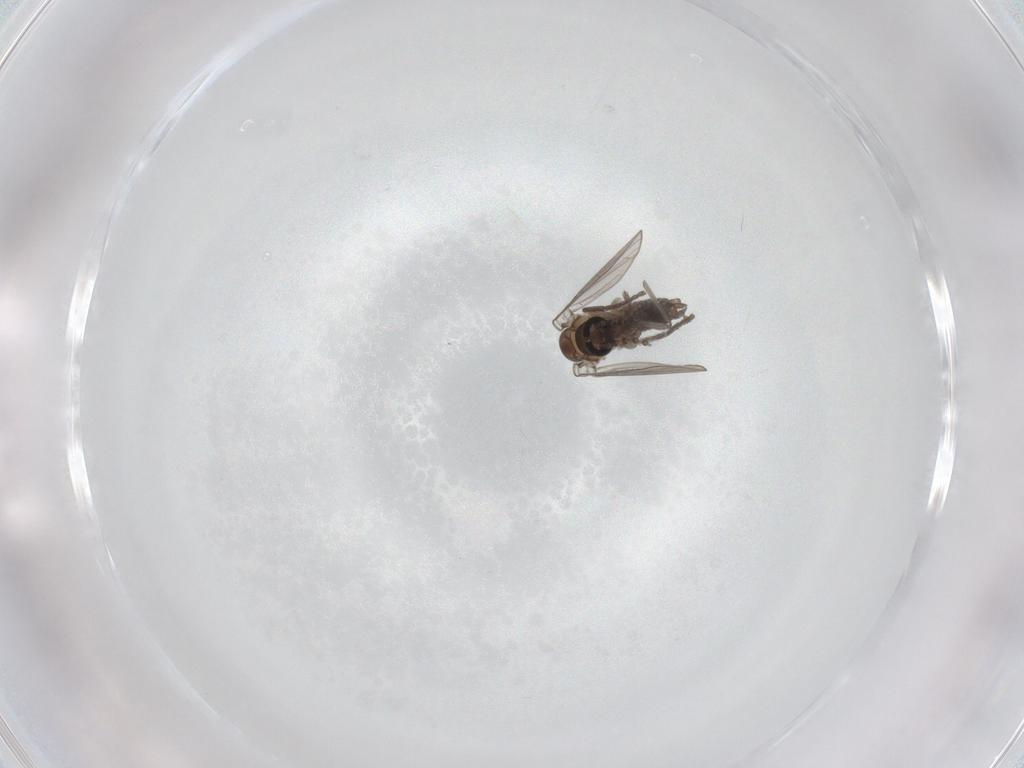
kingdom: Animalia
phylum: Arthropoda
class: Insecta
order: Diptera
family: Psychodidae
